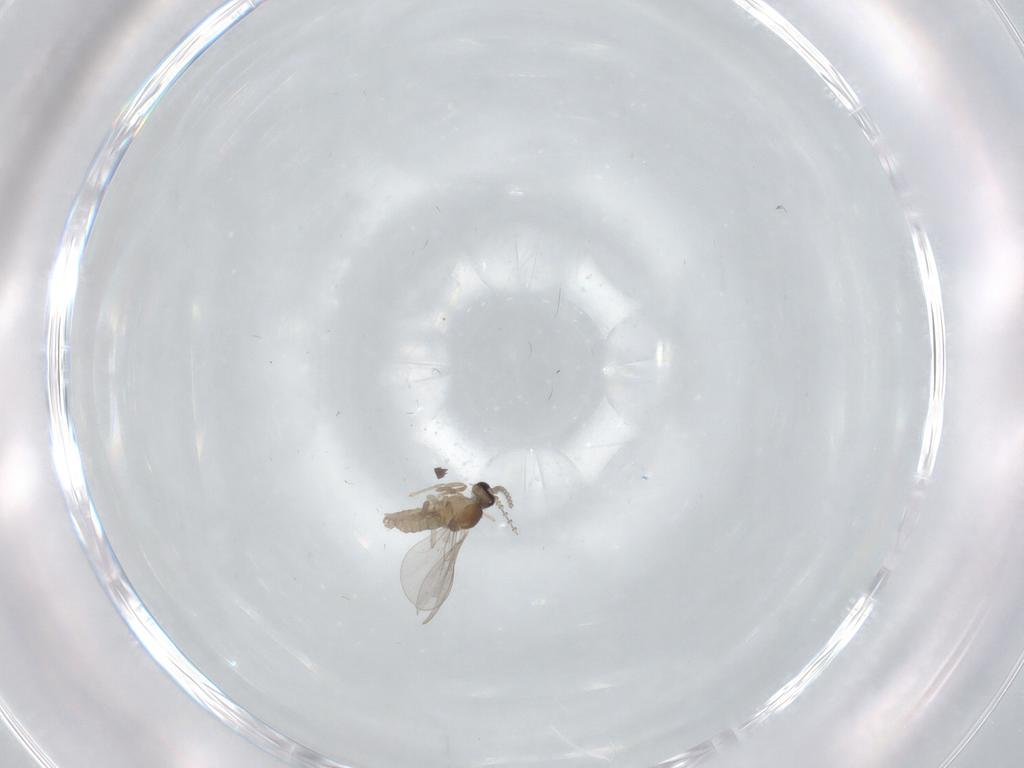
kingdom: Animalia
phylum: Arthropoda
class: Insecta
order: Diptera
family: Cecidomyiidae
